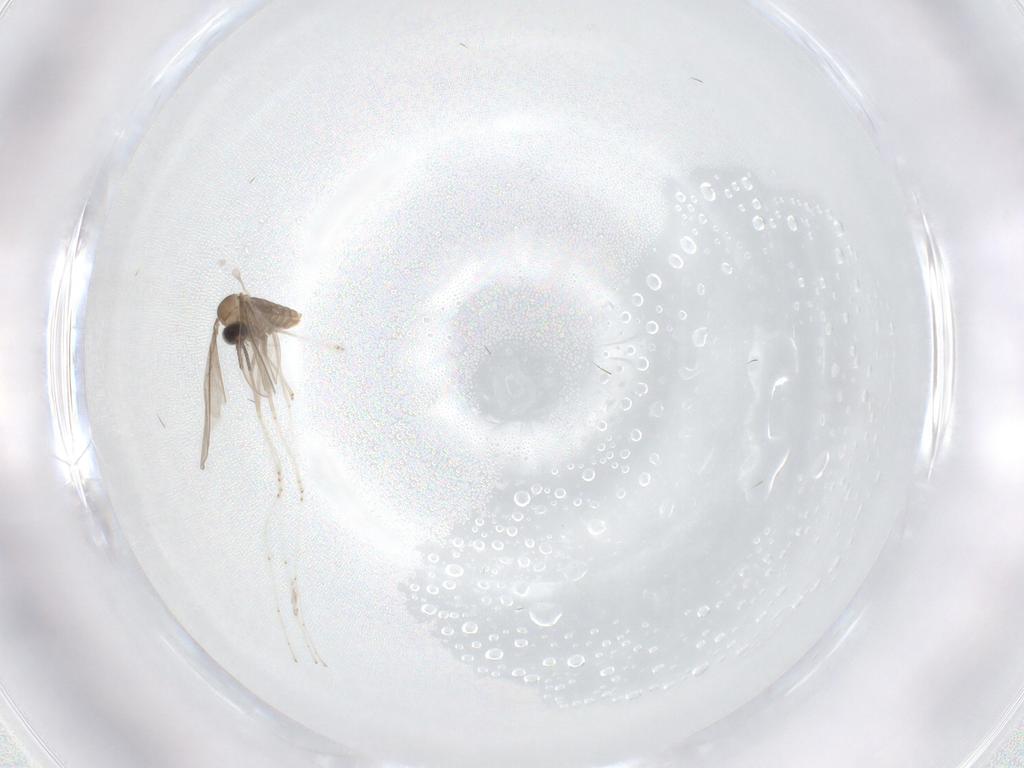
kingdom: Animalia
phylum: Arthropoda
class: Insecta
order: Diptera
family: Cecidomyiidae
